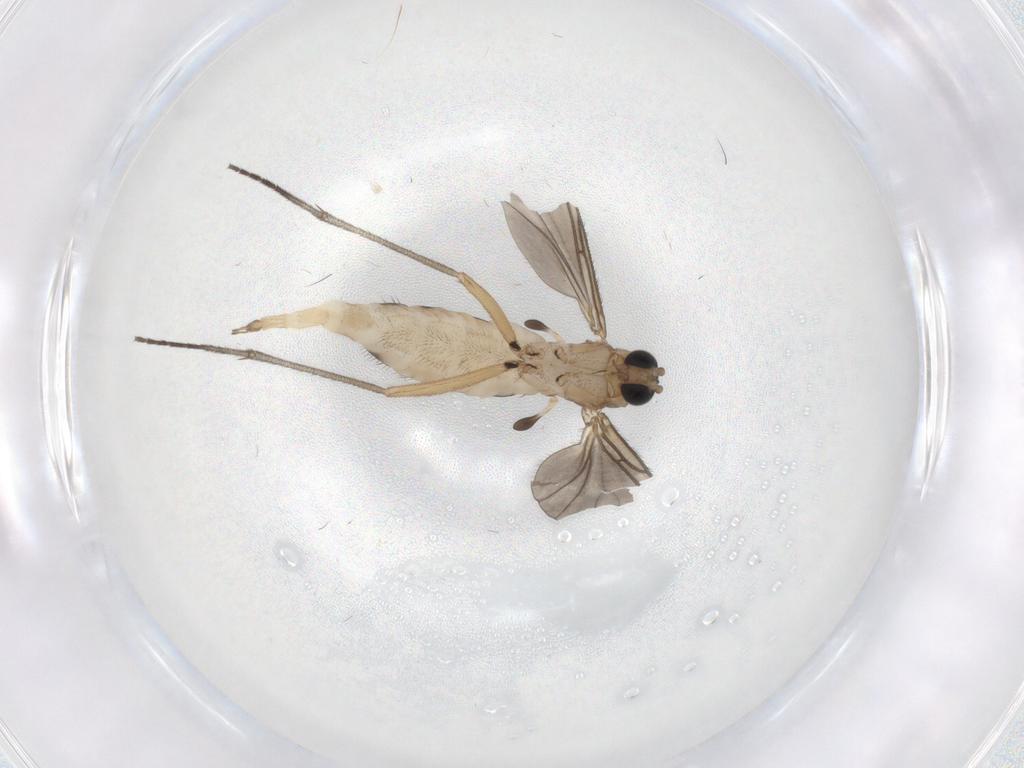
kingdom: Animalia
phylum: Arthropoda
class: Insecta
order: Diptera
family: Sciaridae
